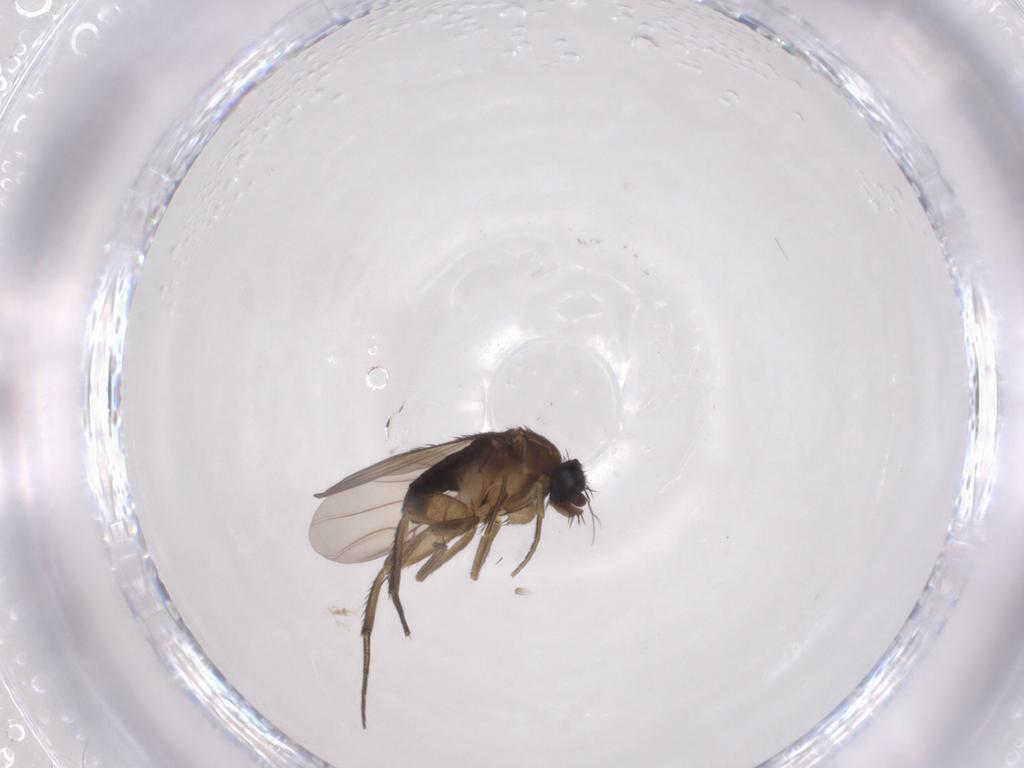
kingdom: Animalia
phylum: Arthropoda
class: Insecta
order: Diptera
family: Phoridae
